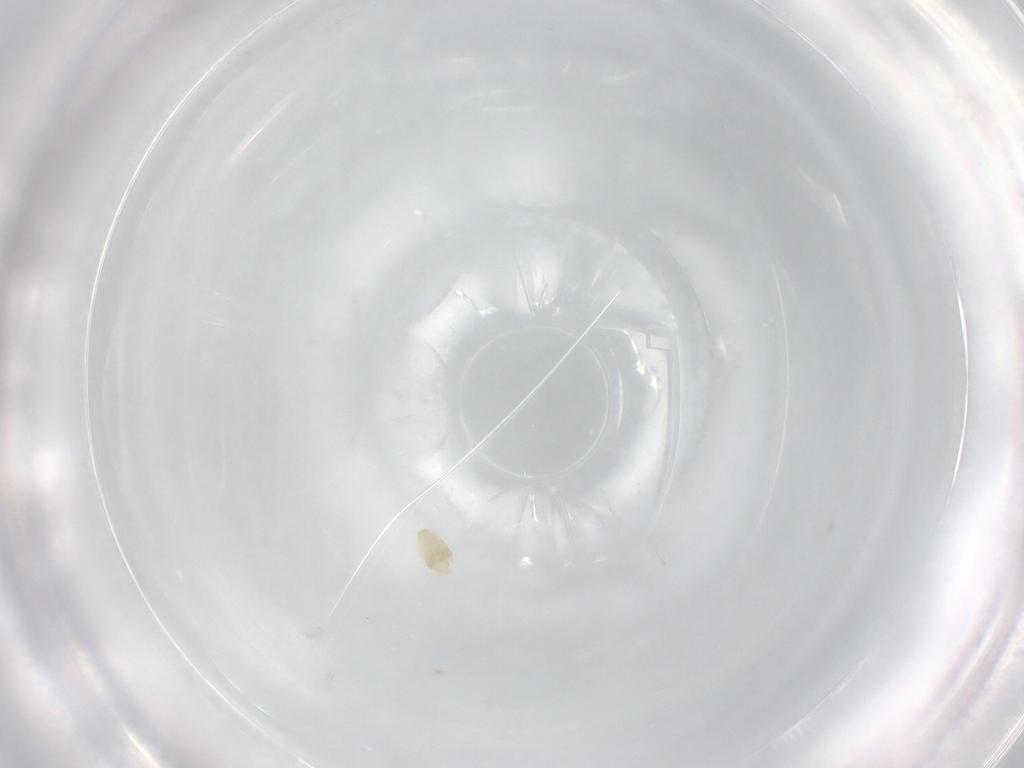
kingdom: Animalia
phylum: Arthropoda
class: Arachnida
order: Trombidiformes
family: Eupodidae
